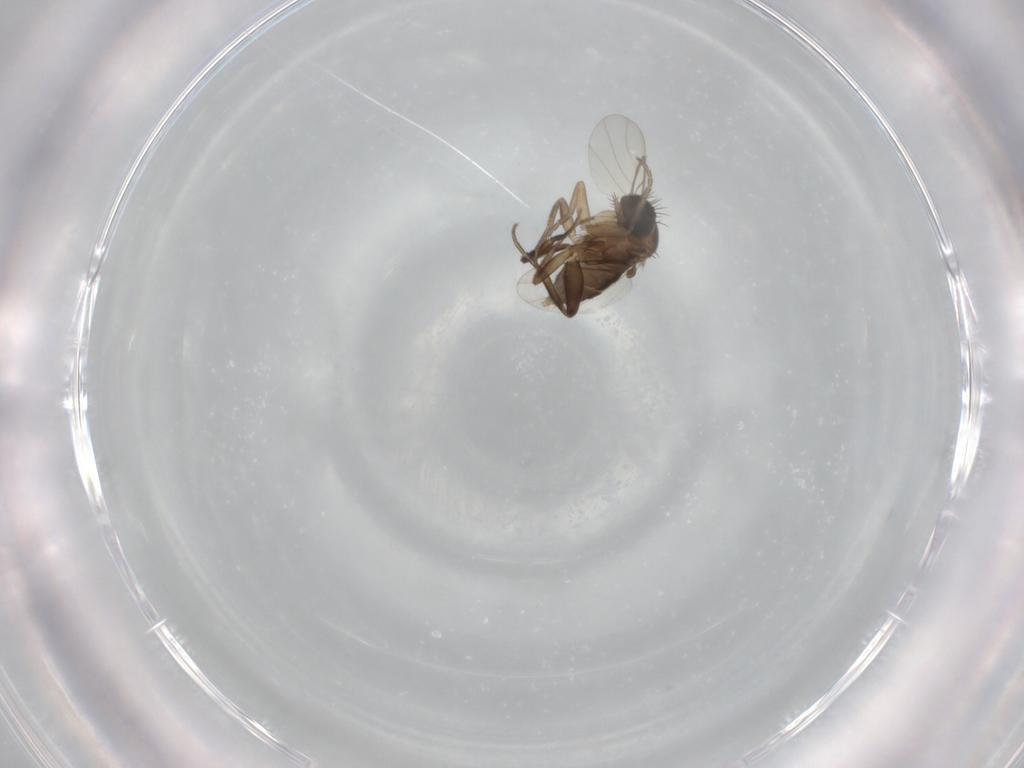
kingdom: Animalia
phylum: Arthropoda
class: Insecta
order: Diptera
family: Phoridae
